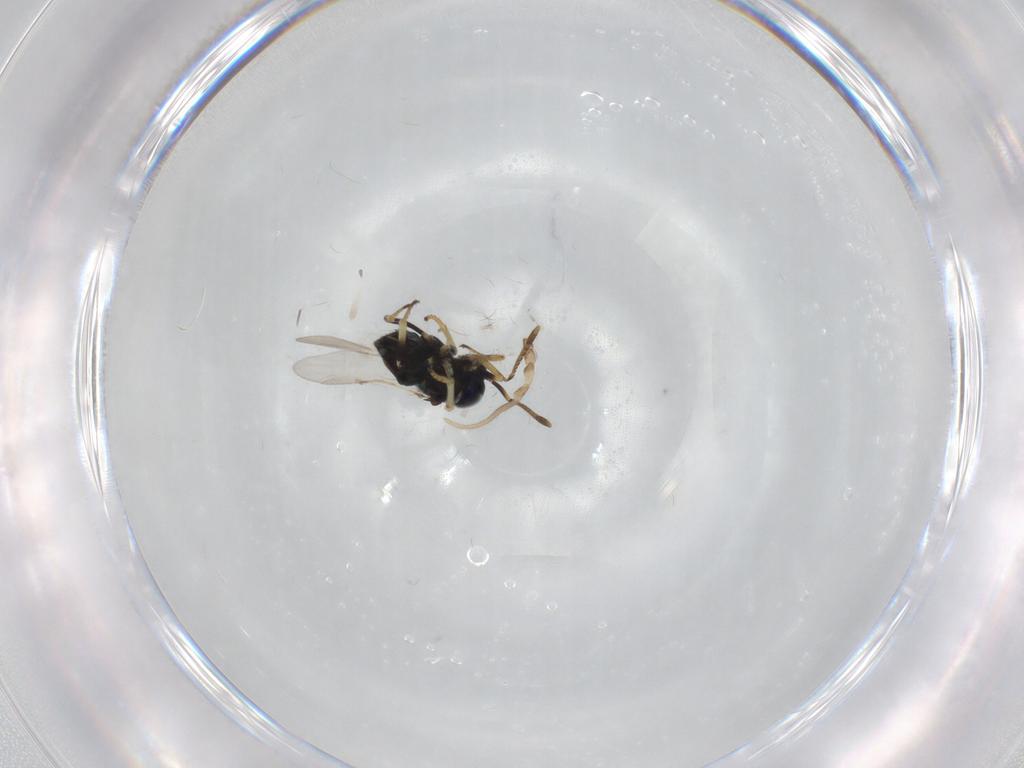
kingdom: Animalia
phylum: Arthropoda
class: Insecta
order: Hymenoptera
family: Encyrtidae
